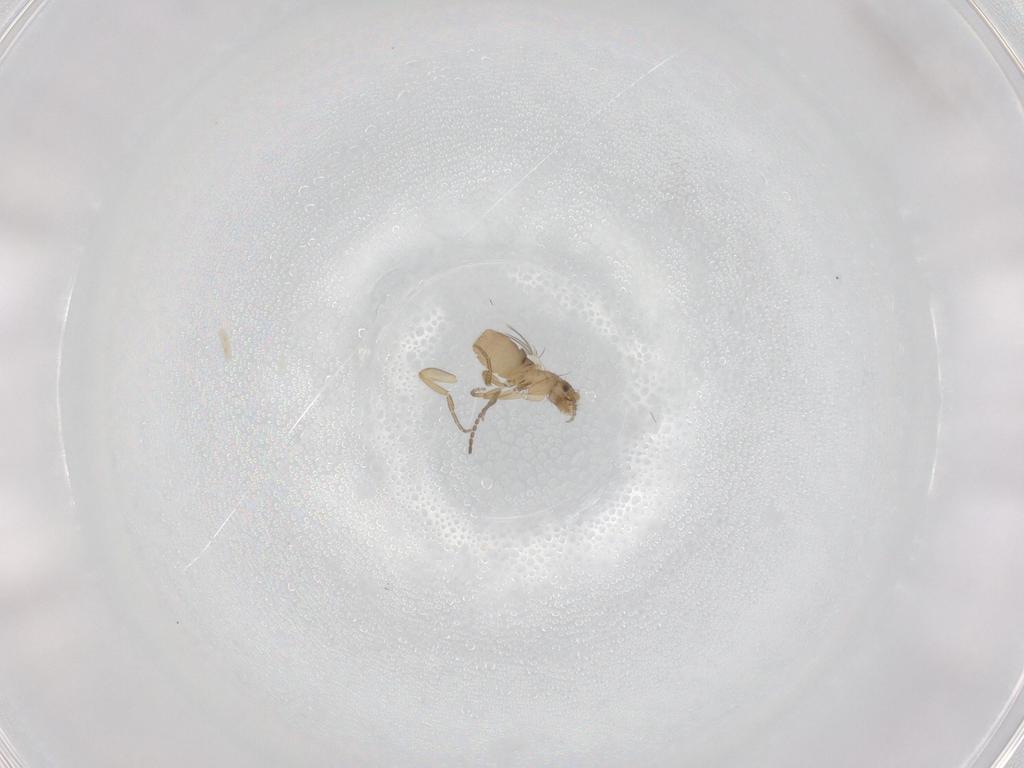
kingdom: Animalia
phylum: Arthropoda
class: Insecta
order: Diptera
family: Phoridae
